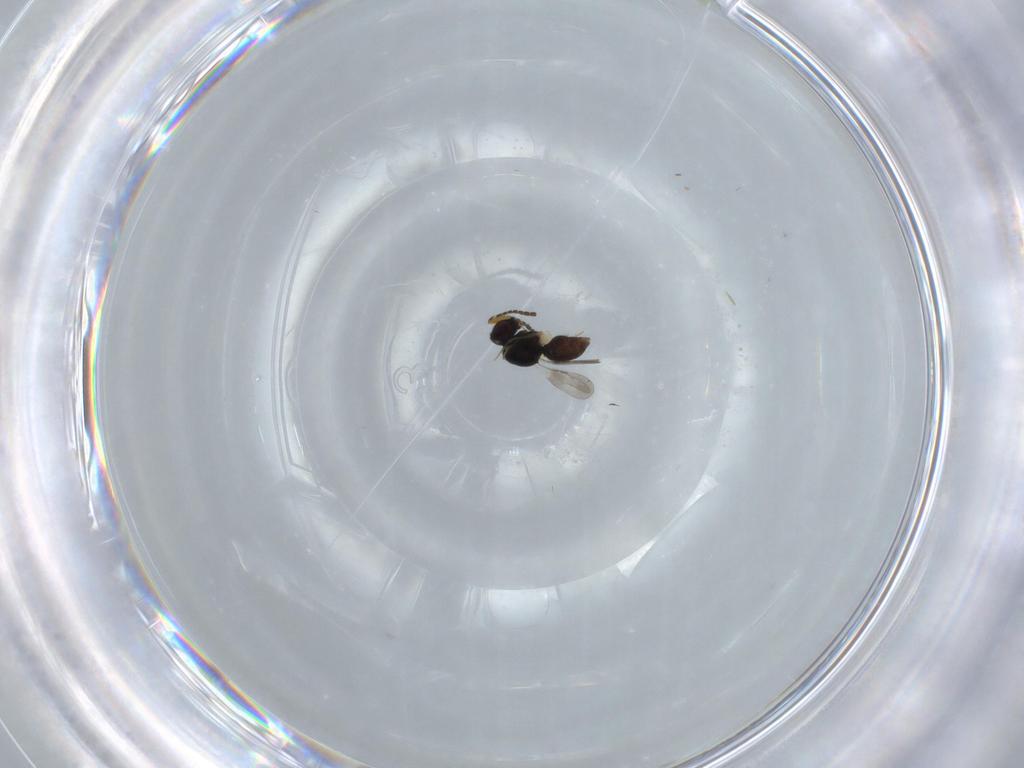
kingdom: Animalia
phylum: Arthropoda
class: Insecta
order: Hymenoptera
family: Ceraphronidae
